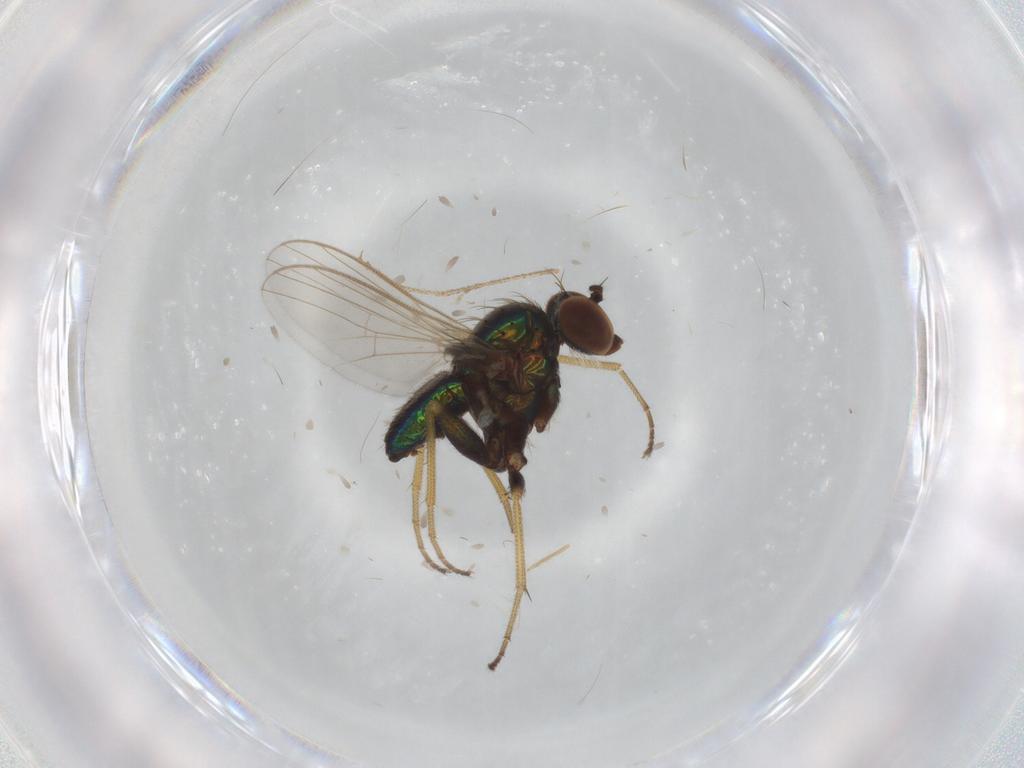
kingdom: Animalia
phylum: Arthropoda
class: Insecta
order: Diptera
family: Dolichopodidae
